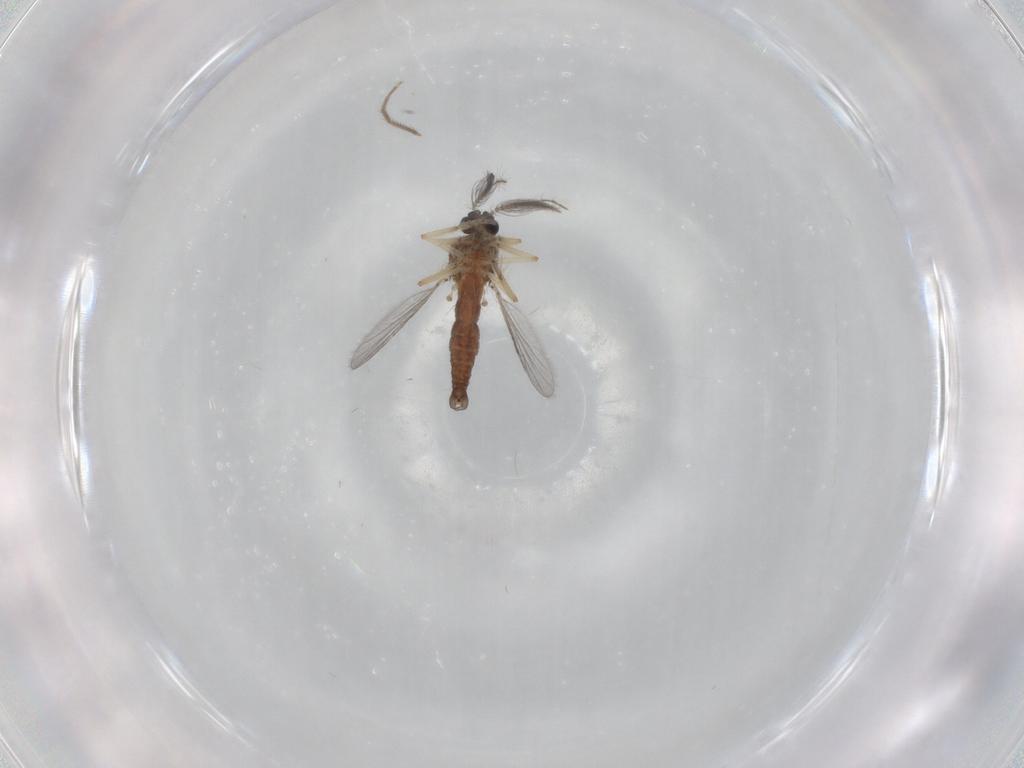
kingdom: Animalia
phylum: Arthropoda
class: Insecta
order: Diptera
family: Ceratopogonidae
